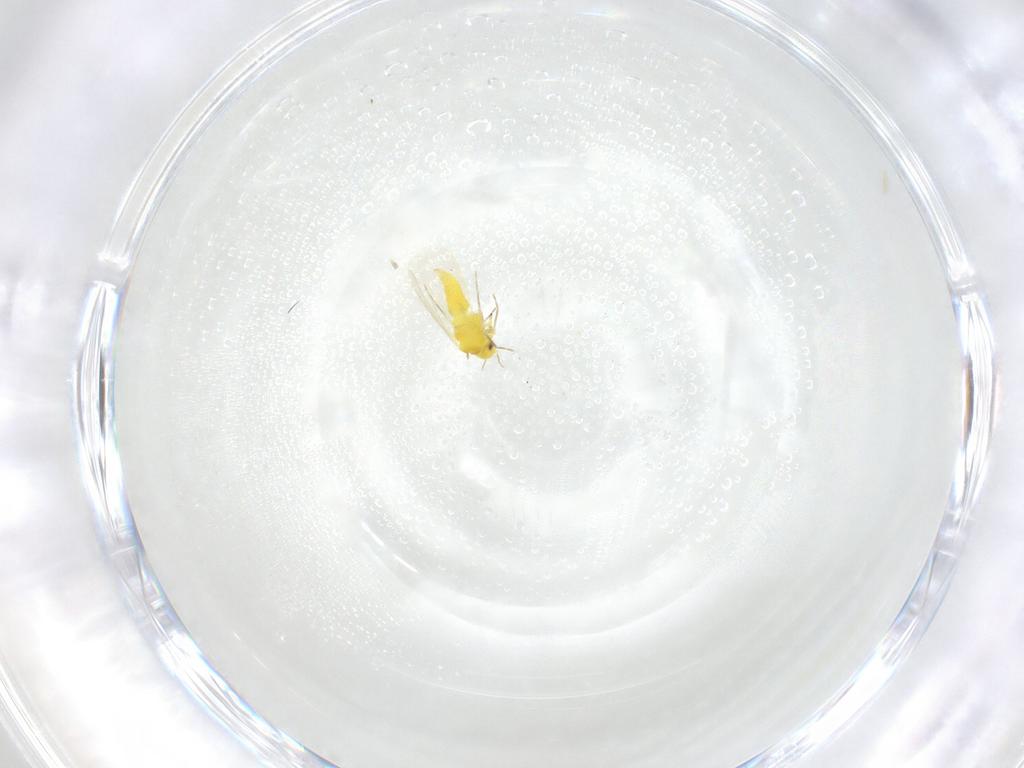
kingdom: Animalia
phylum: Arthropoda
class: Insecta
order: Hemiptera
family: Aleyrodidae
